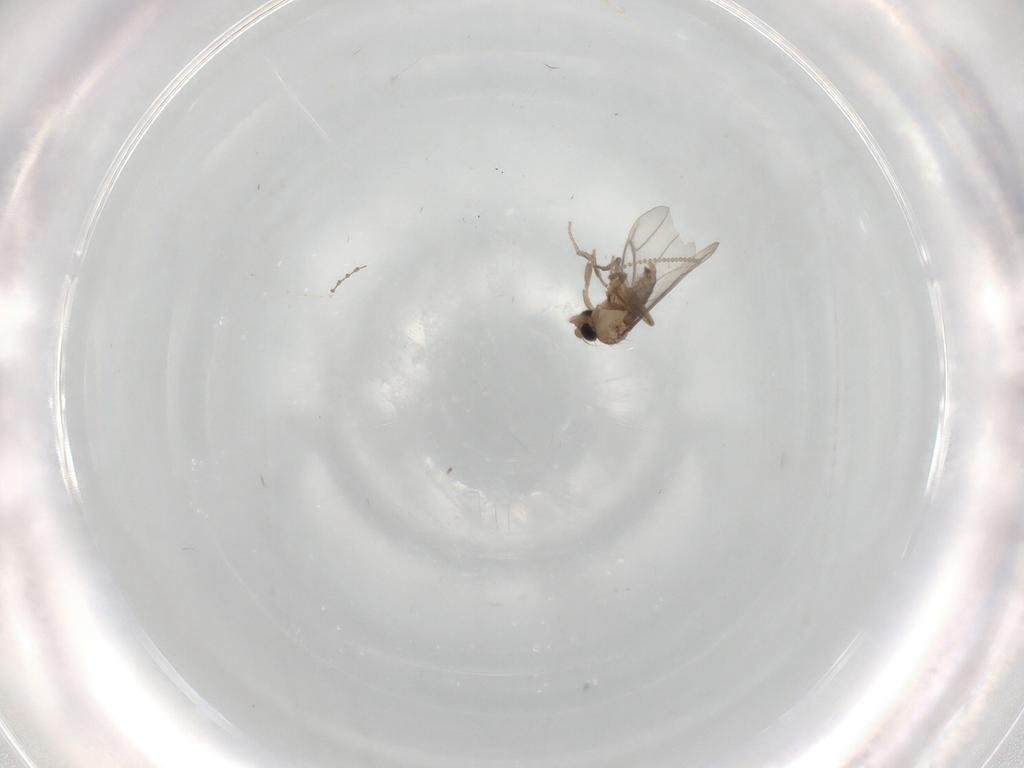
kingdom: Animalia
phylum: Arthropoda
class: Insecta
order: Diptera
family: Cecidomyiidae
